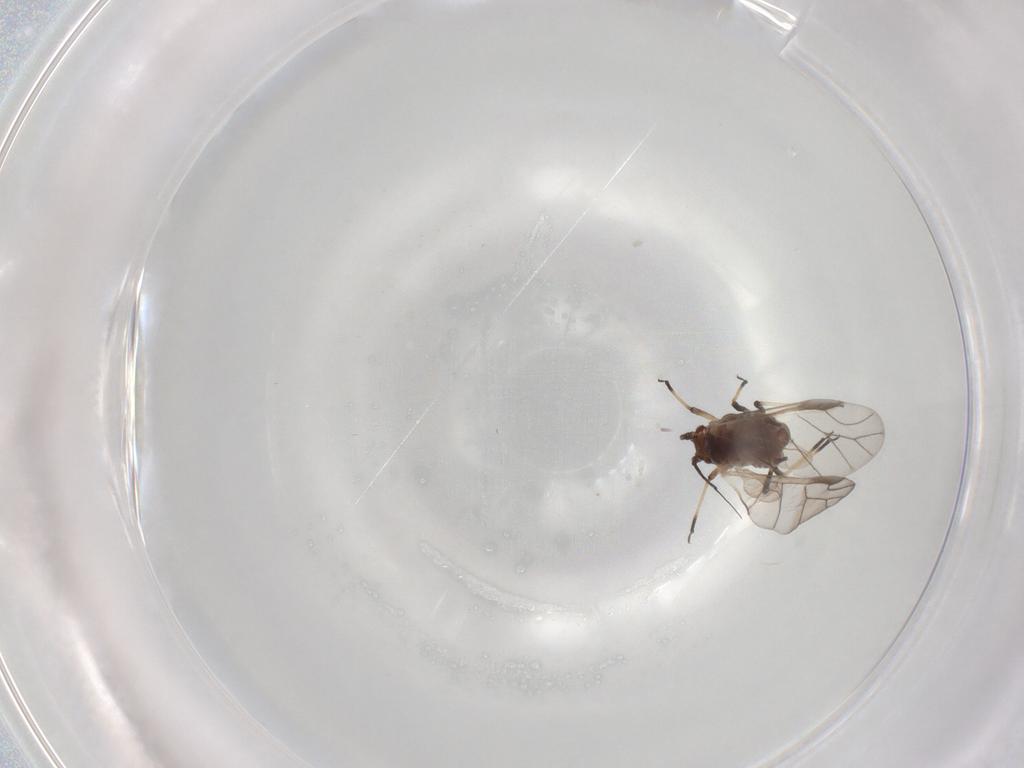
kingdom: Animalia
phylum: Arthropoda
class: Insecta
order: Hemiptera
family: Aphididae
